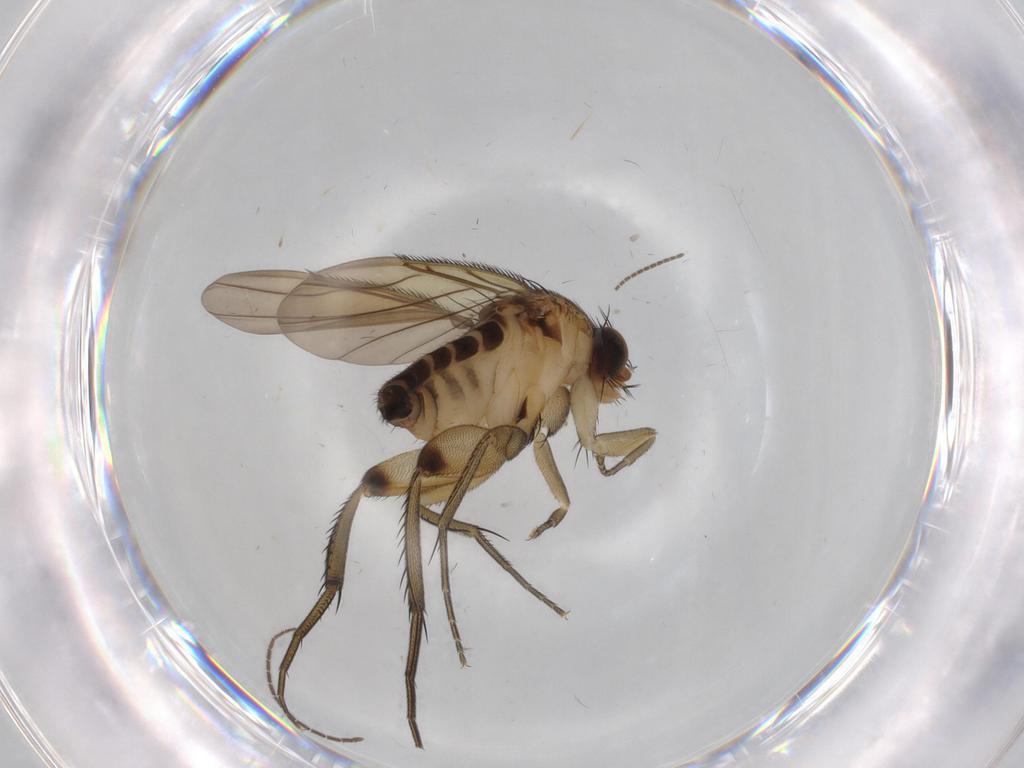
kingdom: Animalia
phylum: Arthropoda
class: Insecta
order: Diptera
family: Phoridae
